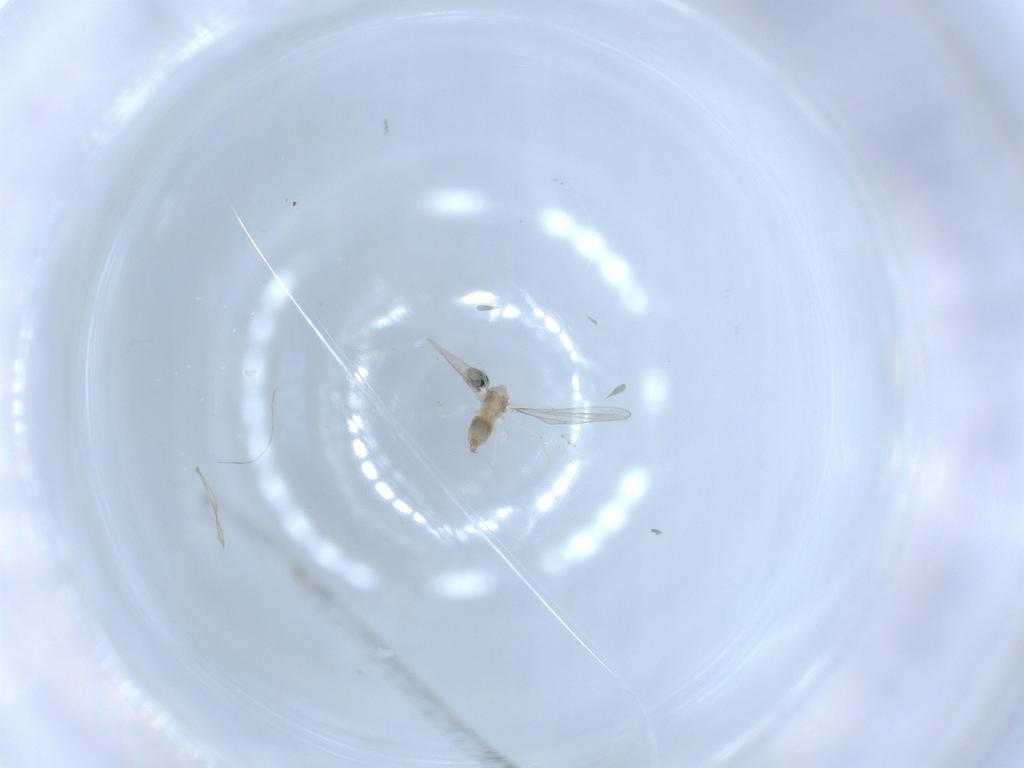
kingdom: Animalia
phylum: Arthropoda
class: Insecta
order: Diptera
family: Cecidomyiidae
